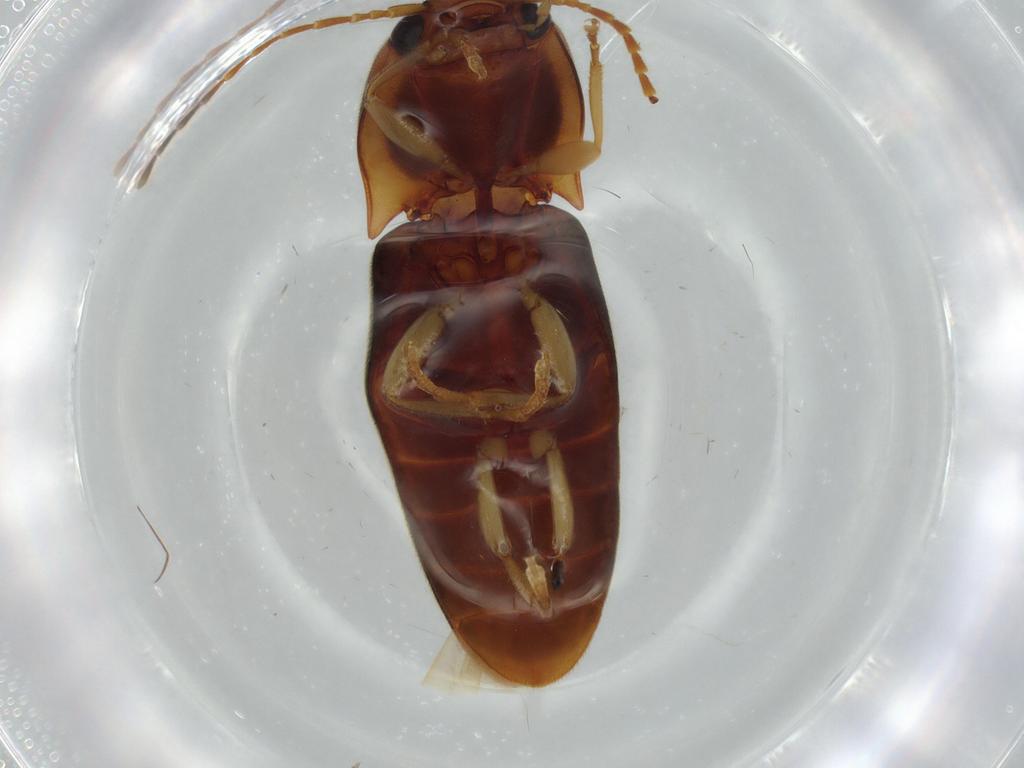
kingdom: Animalia
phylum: Arthropoda
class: Insecta
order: Coleoptera
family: Elateridae
